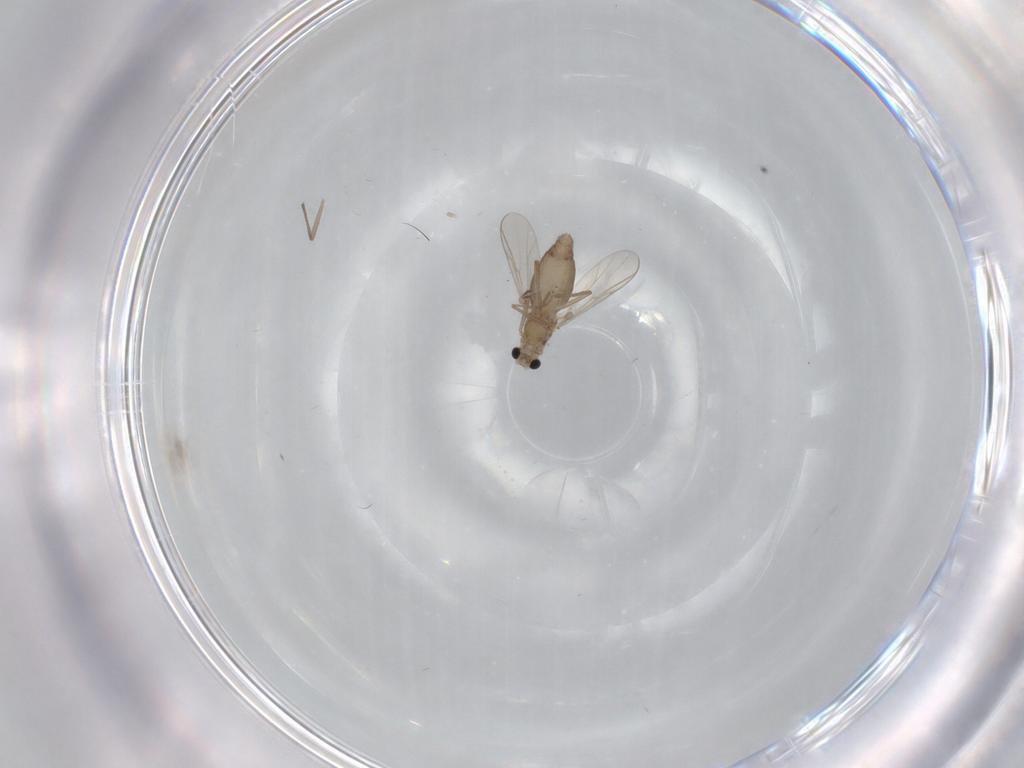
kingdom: Animalia
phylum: Arthropoda
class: Insecta
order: Diptera
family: Chironomidae
